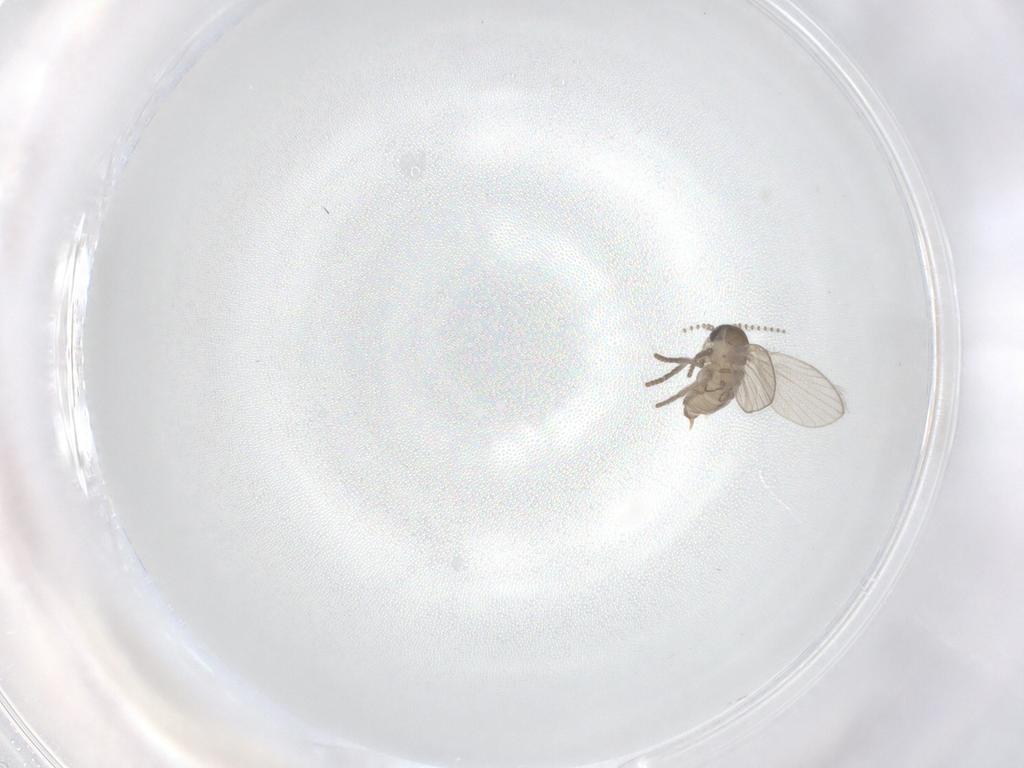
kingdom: Animalia
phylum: Arthropoda
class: Insecta
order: Diptera
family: Psychodidae
